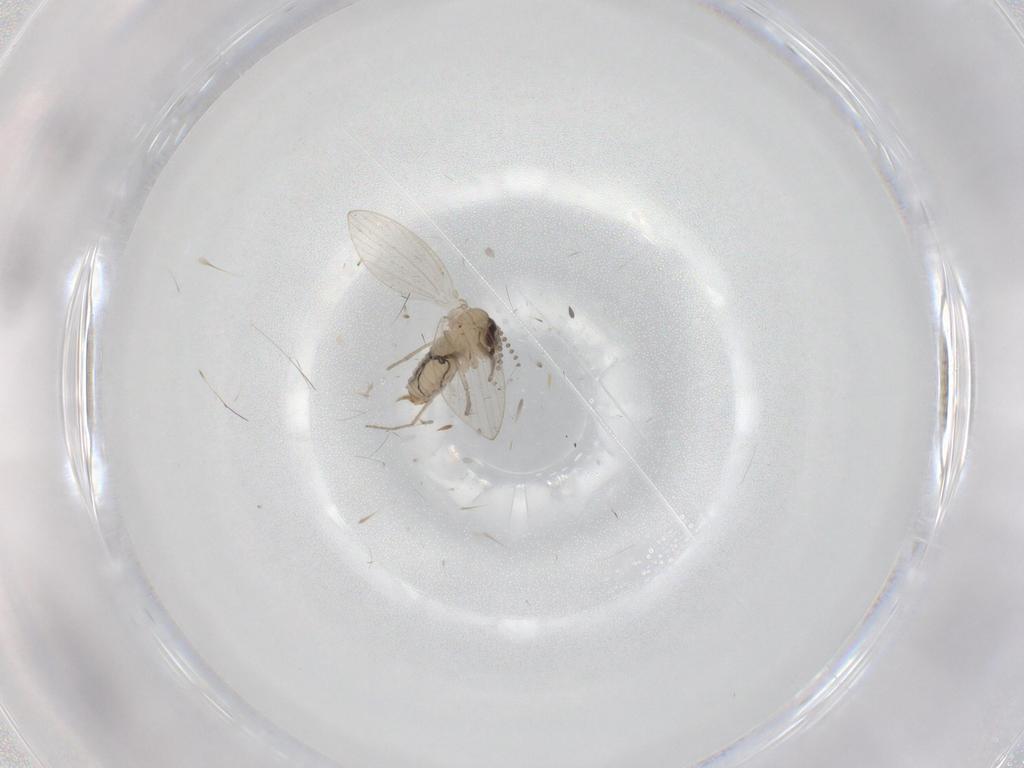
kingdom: Animalia
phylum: Arthropoda
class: Insecta
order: Diptera
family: Psychodidae
